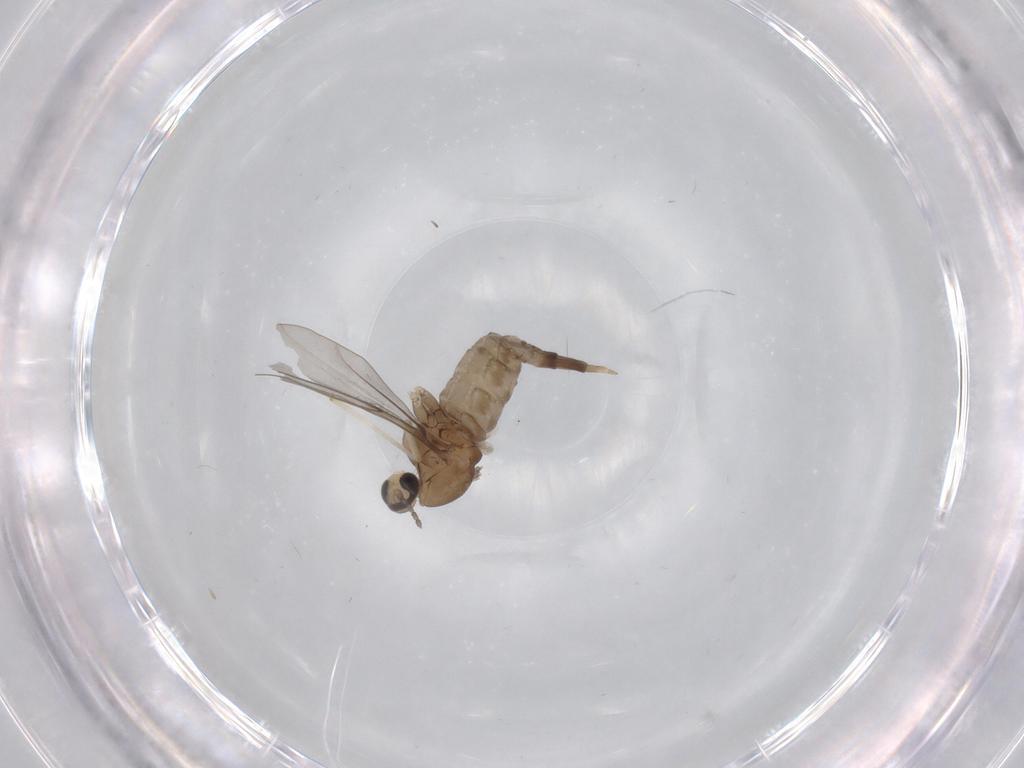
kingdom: Animalia
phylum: Arthropoda
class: Insecta
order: Diptera
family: Cecidomyiidae
